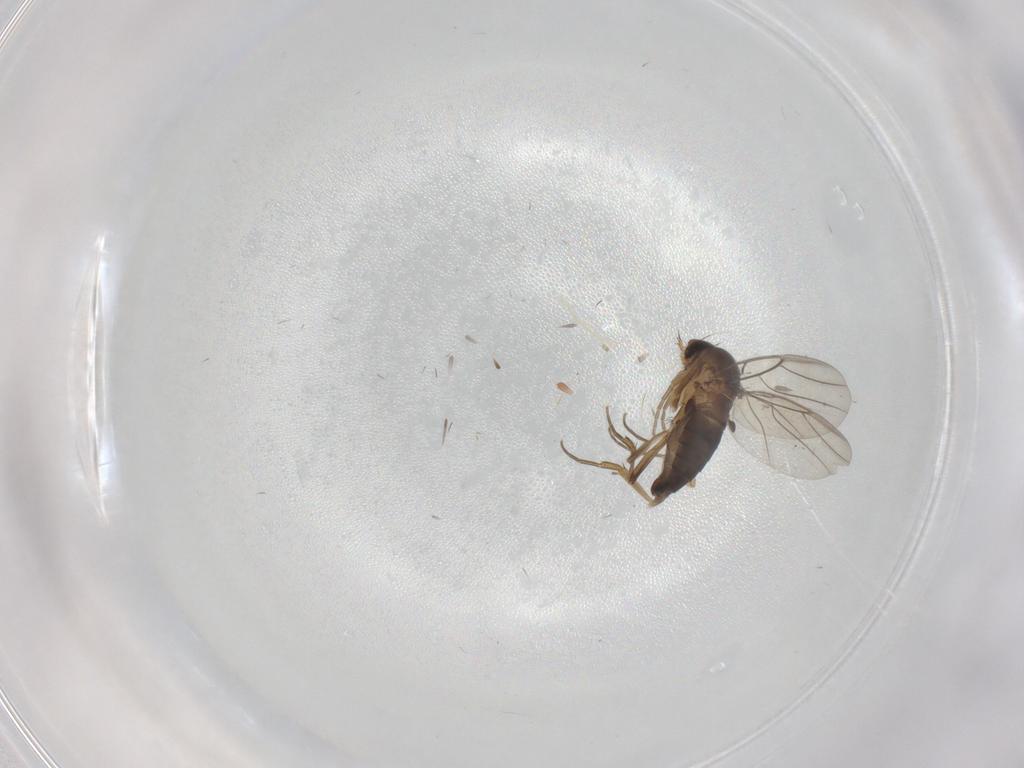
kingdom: Animalia
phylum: Arthropoda
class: Insecta
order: Diptera
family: Phoridae
